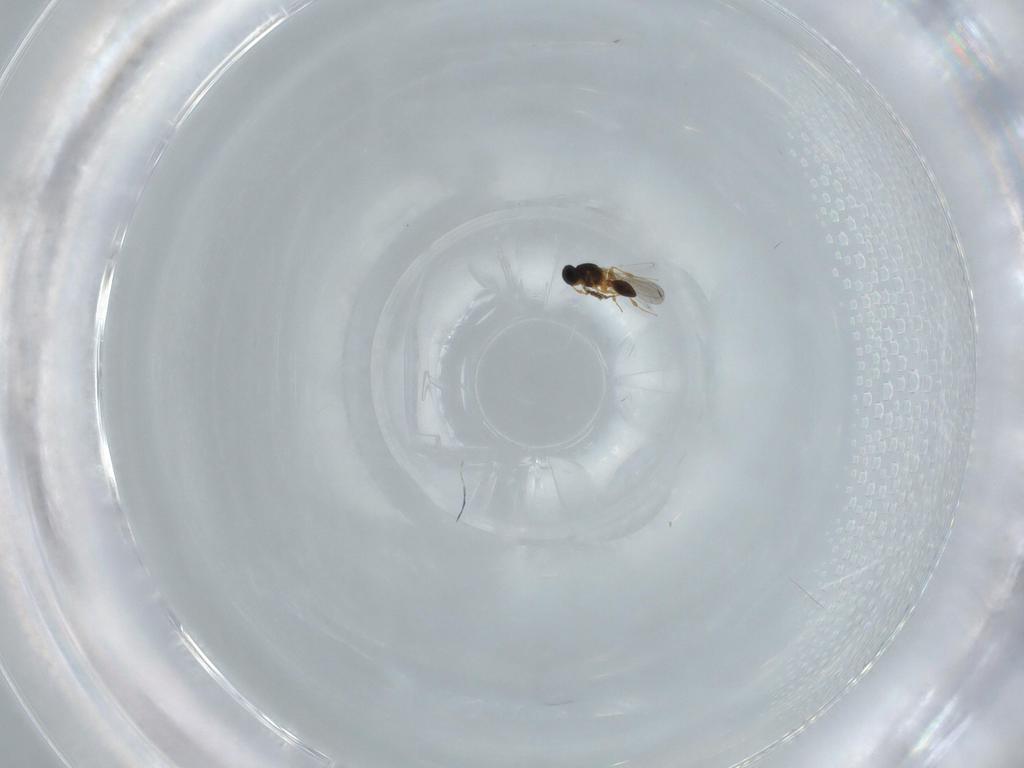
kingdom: Animalia
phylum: Arthropoda
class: Insecta
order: Hymenoptera
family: Platygastridae
